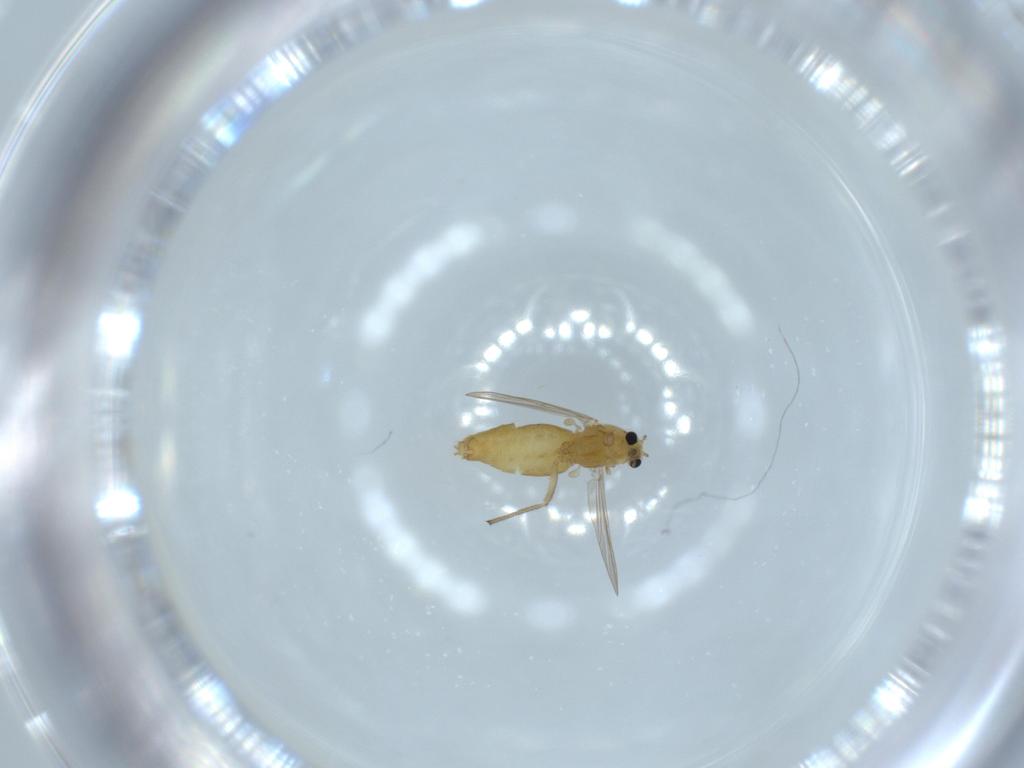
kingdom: Animalia
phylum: Arthropoda
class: Insecta
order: Diptera
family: Chironomidae
